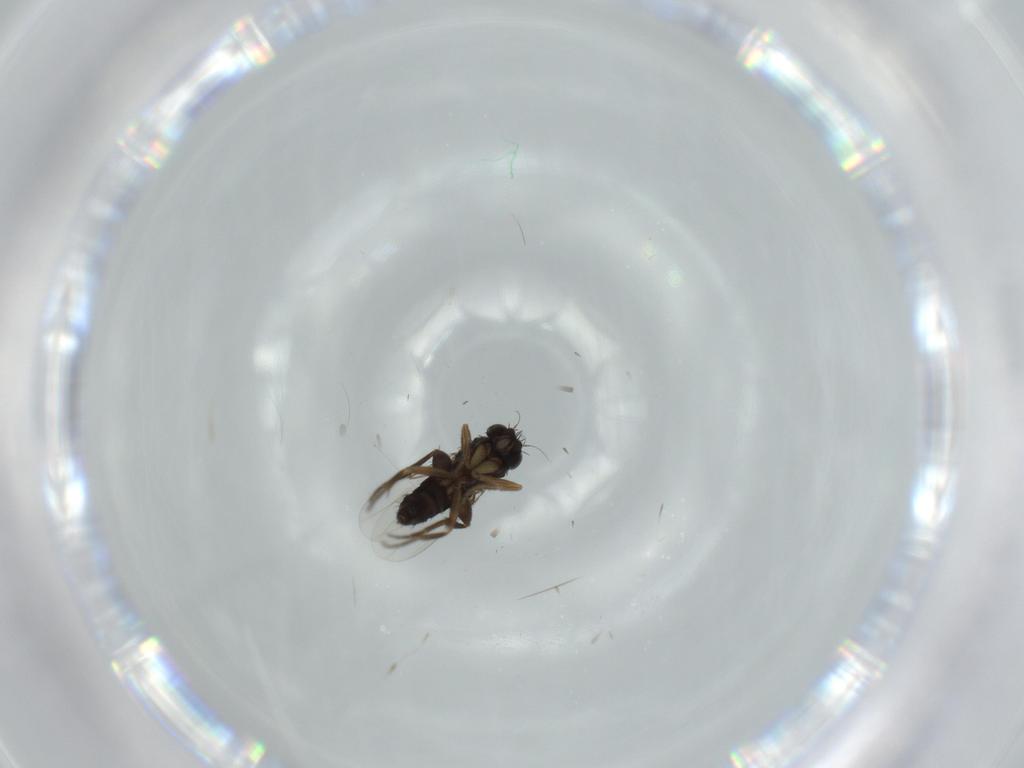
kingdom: Animalia
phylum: Arthropoda
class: Insecta
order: Diptera
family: Phoridae
